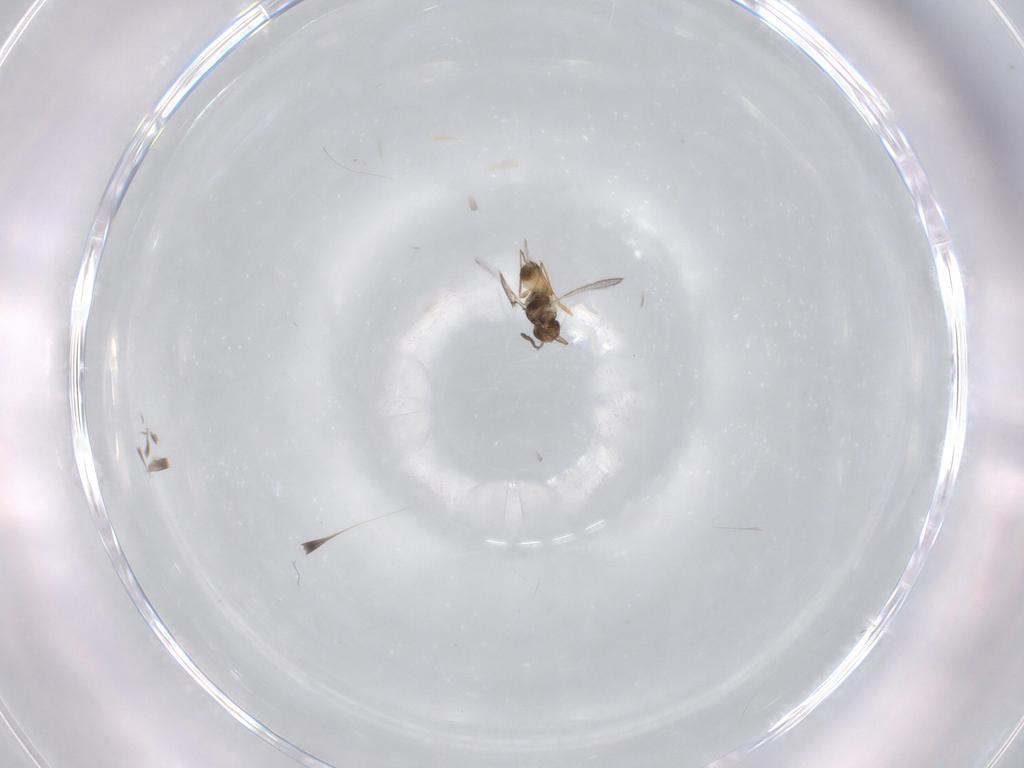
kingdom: Animalia
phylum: Arthropoda
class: Insecta
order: Hymenoptera
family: Mymaridae
